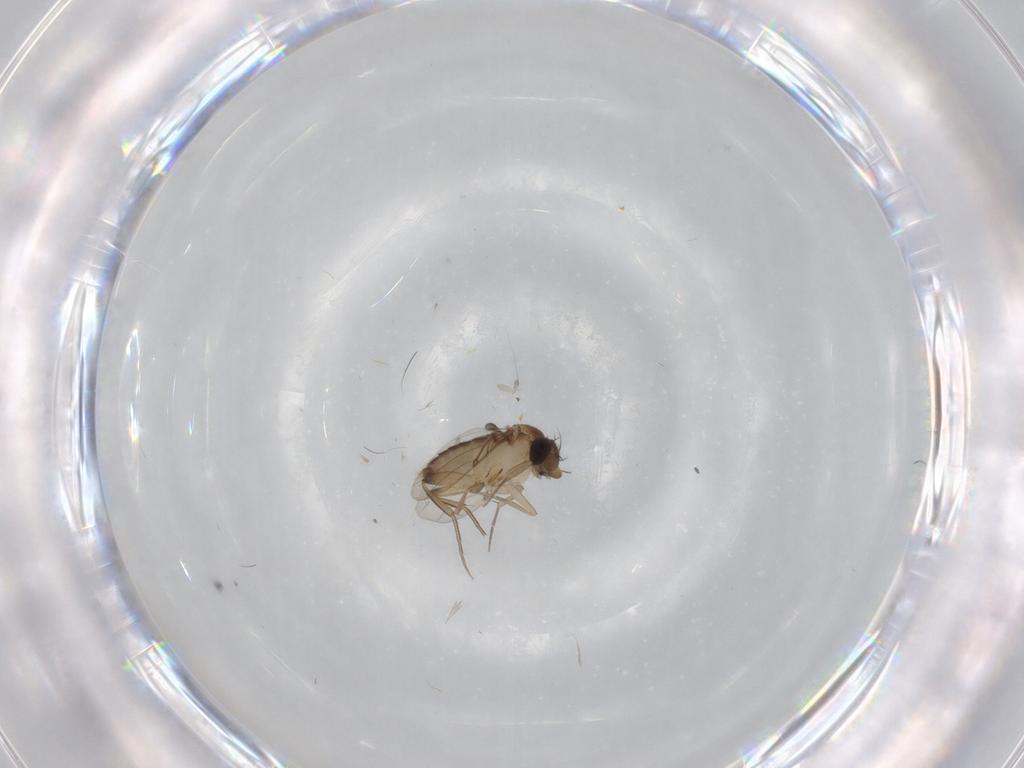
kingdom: Animalia
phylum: Arthropoda
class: Insecta
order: Diptera
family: Phoridae
